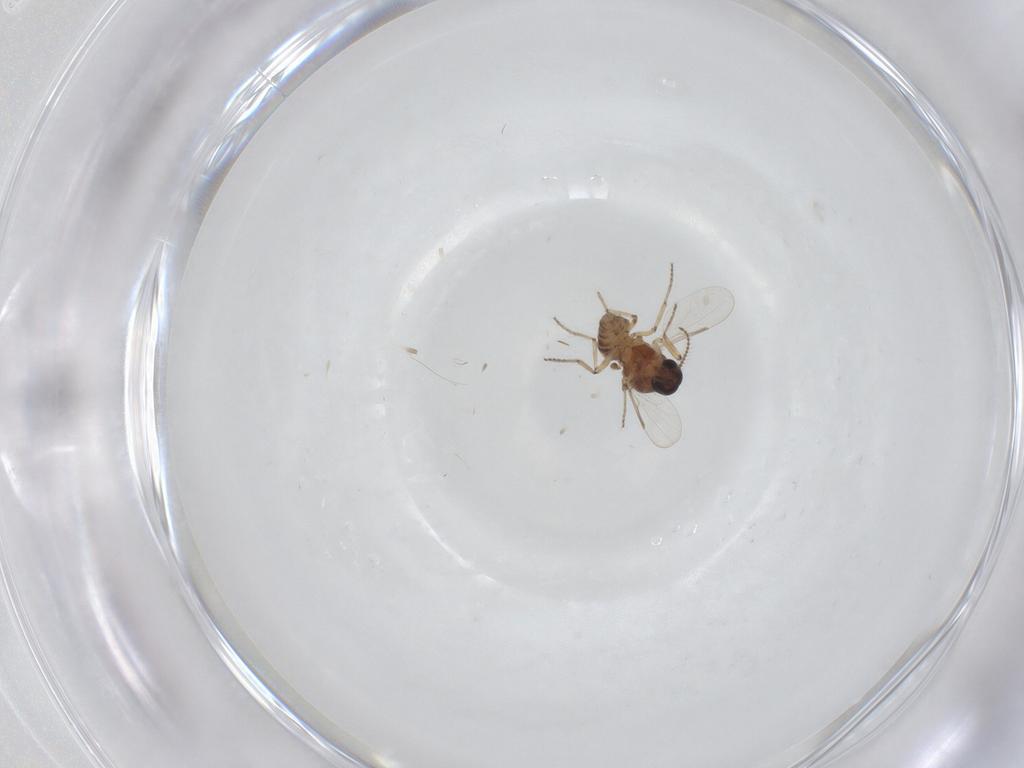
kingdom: Animalia
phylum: Arthropoda
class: Insecta
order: Diptera
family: Ceratopogonidae
